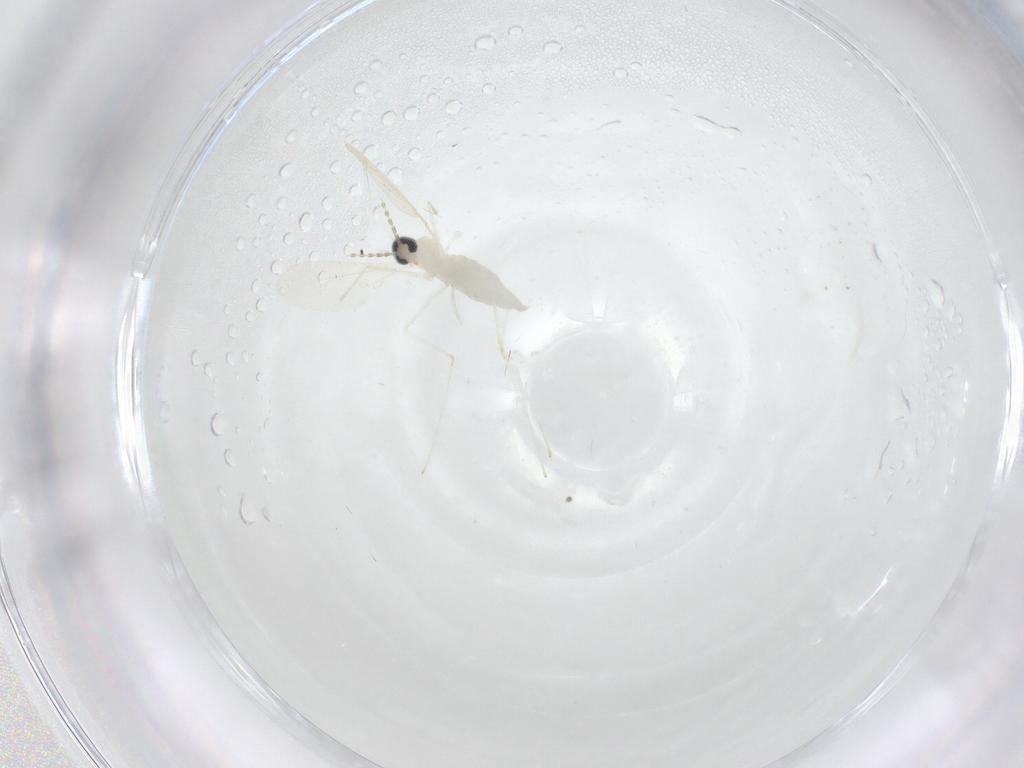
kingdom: Animalia
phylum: Arthropoda
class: Insecta
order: Diptera
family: Cecidomyiidae
